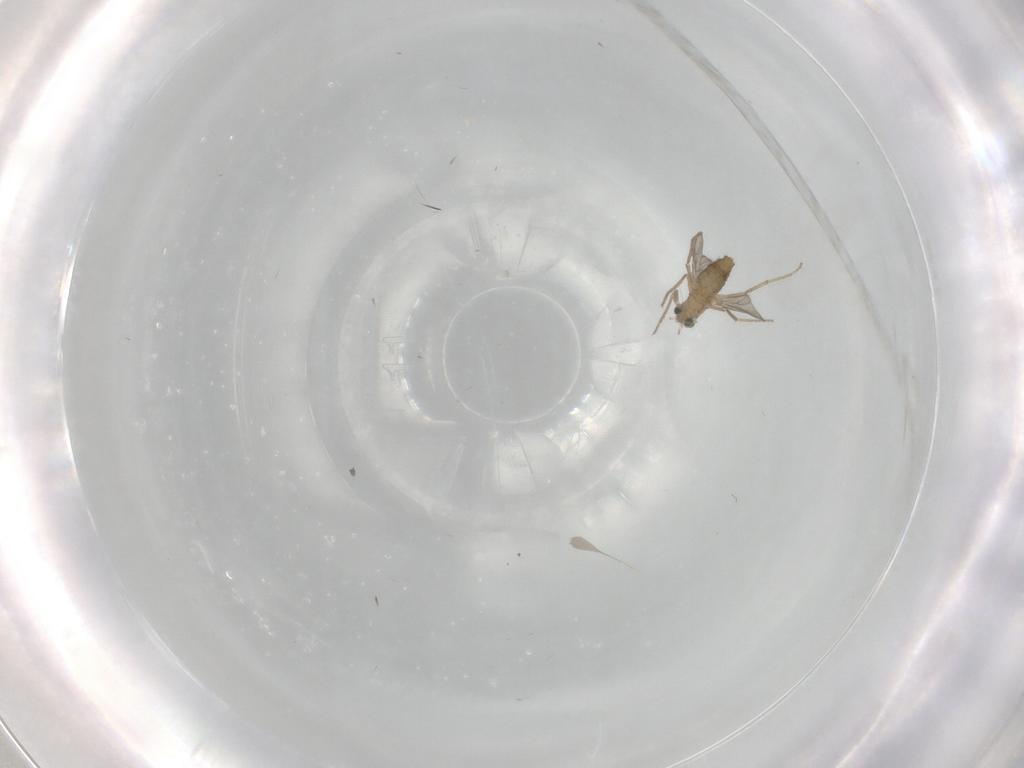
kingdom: Animalia
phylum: Arthropoda
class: Insecta
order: Diptera
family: Chironomidae
